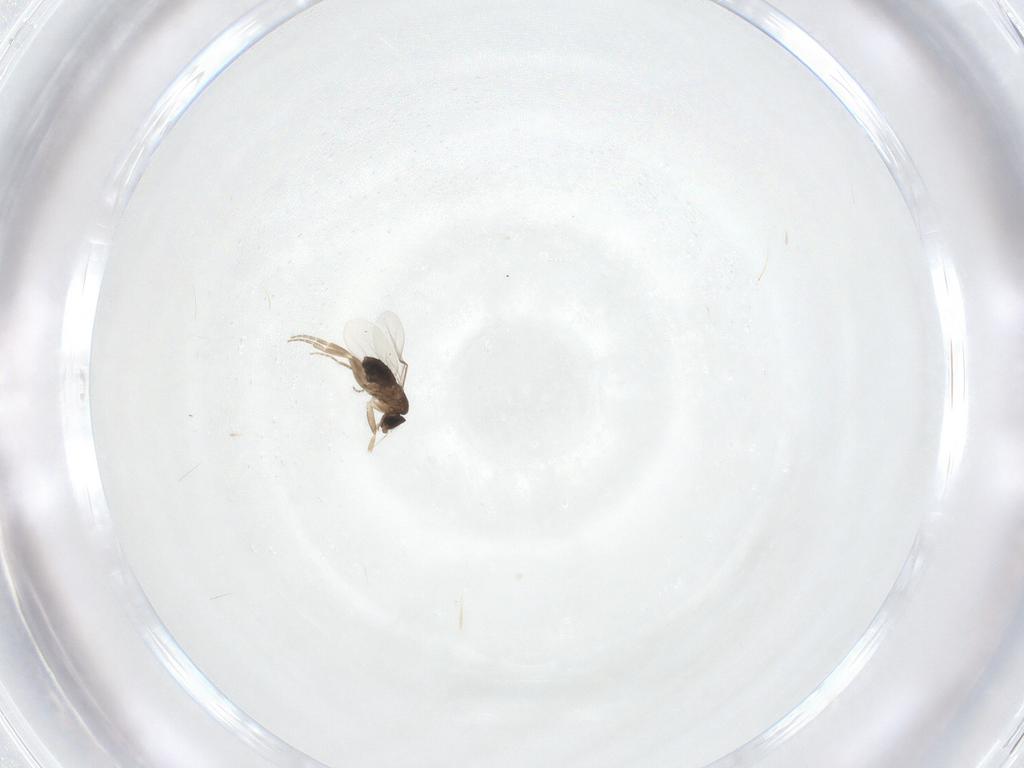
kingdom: Animalia
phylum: Arthropoda
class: Insecta
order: Diptera
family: Phoridae
